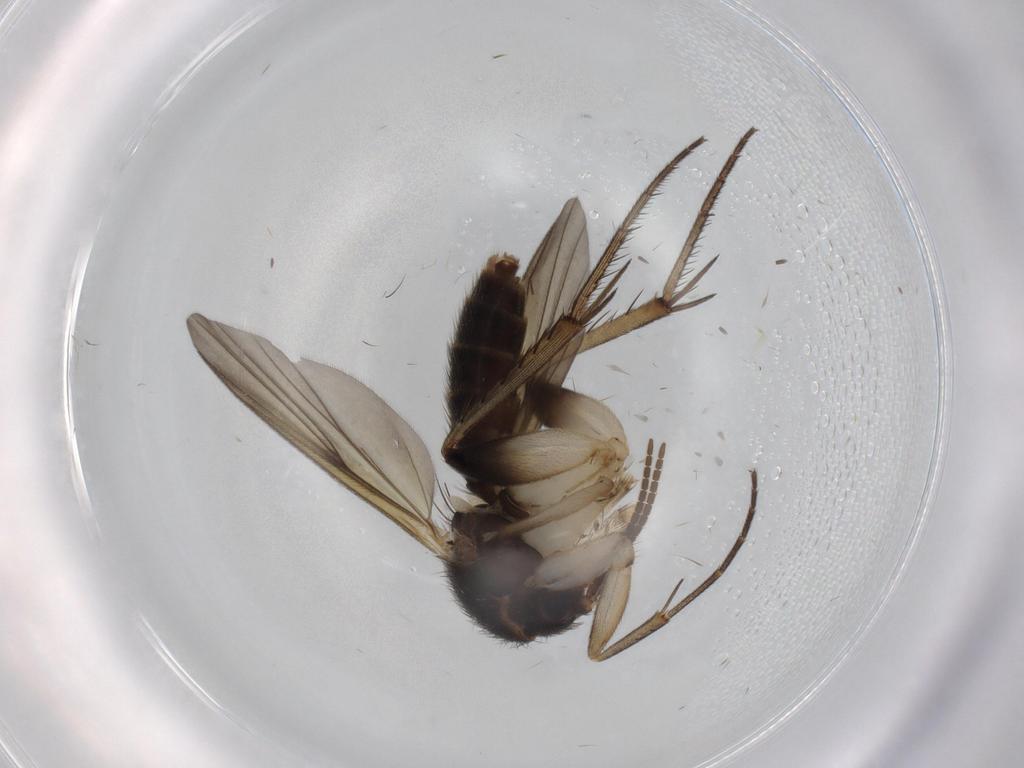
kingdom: Animalia
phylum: Arthropoda
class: Insecta
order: Diptera
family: Mycetophilidae
